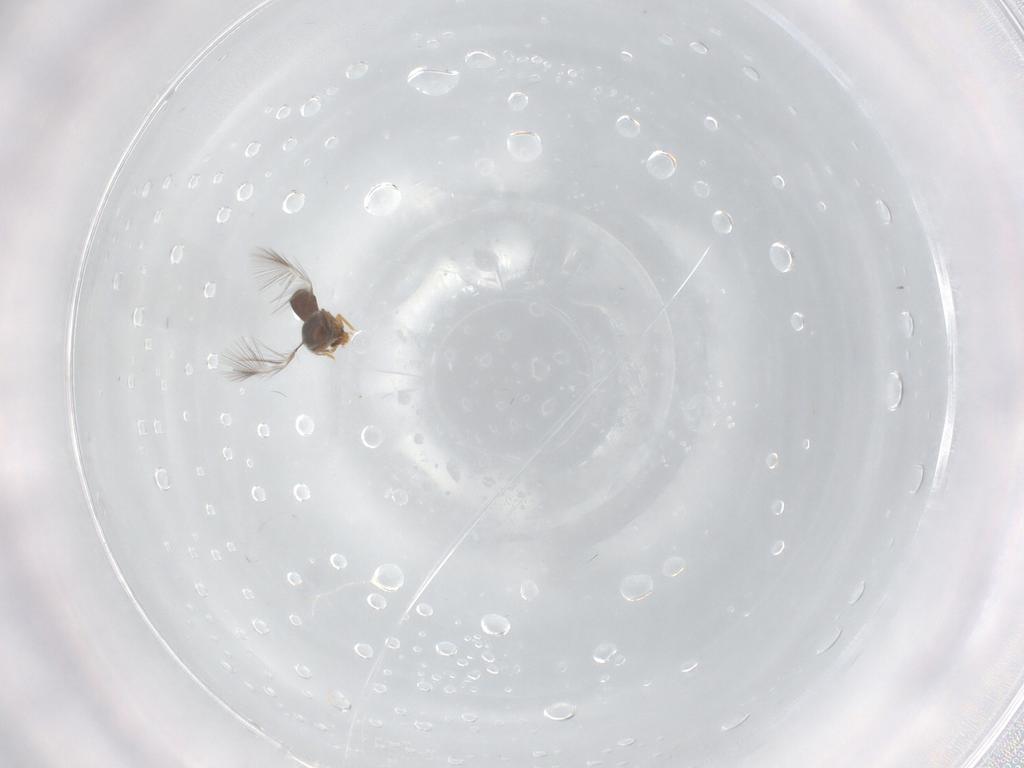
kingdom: Animalia
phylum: Arthropoda
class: Insecta
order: Coleoptera
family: Ptiliidae
